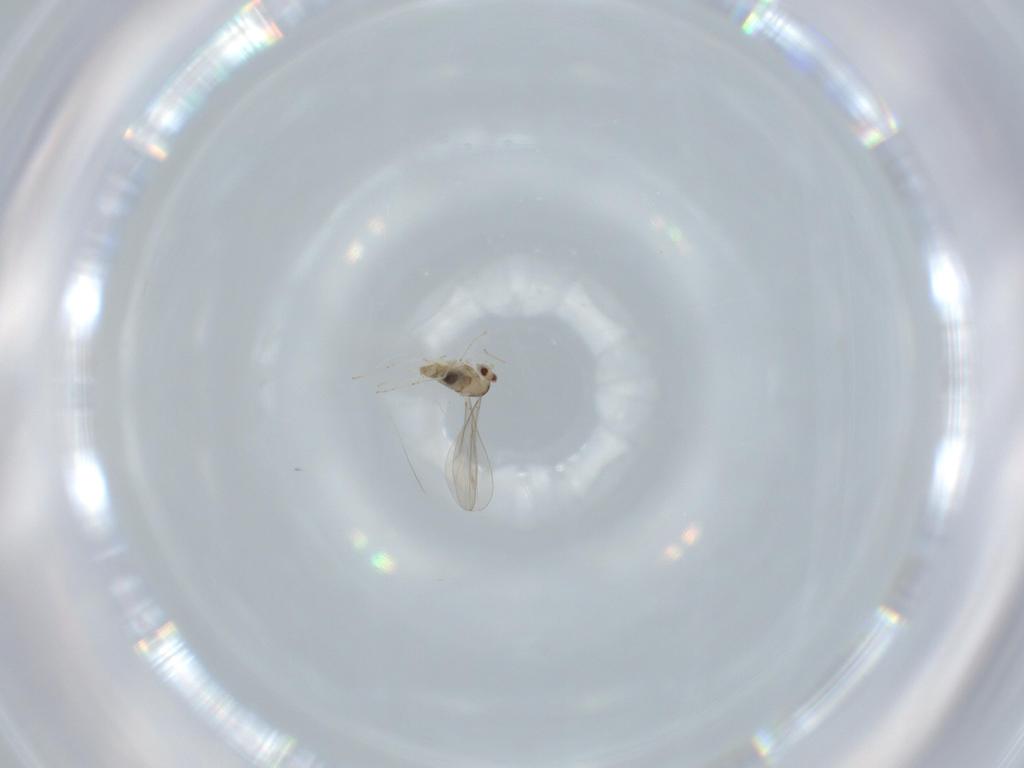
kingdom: Animalia
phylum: Arthropoda
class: Insecta
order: Diptera
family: Cecidomyiidae
